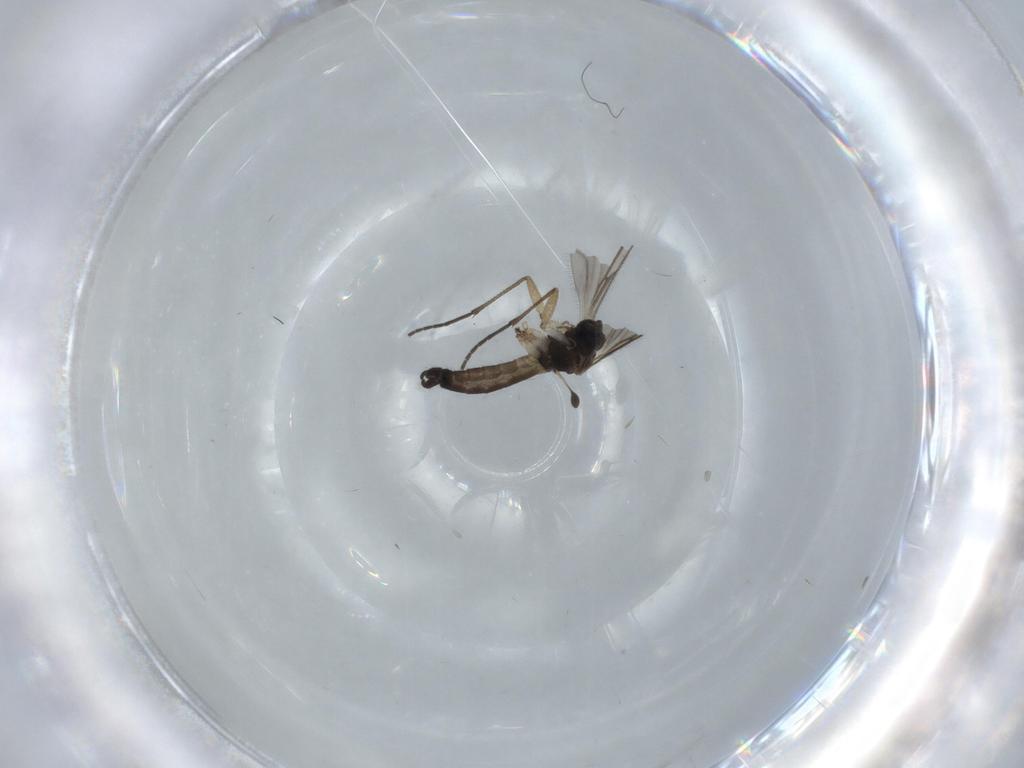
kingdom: Animalia
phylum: Arthropoda
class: Insecta
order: Diptera
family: Sciaridae
